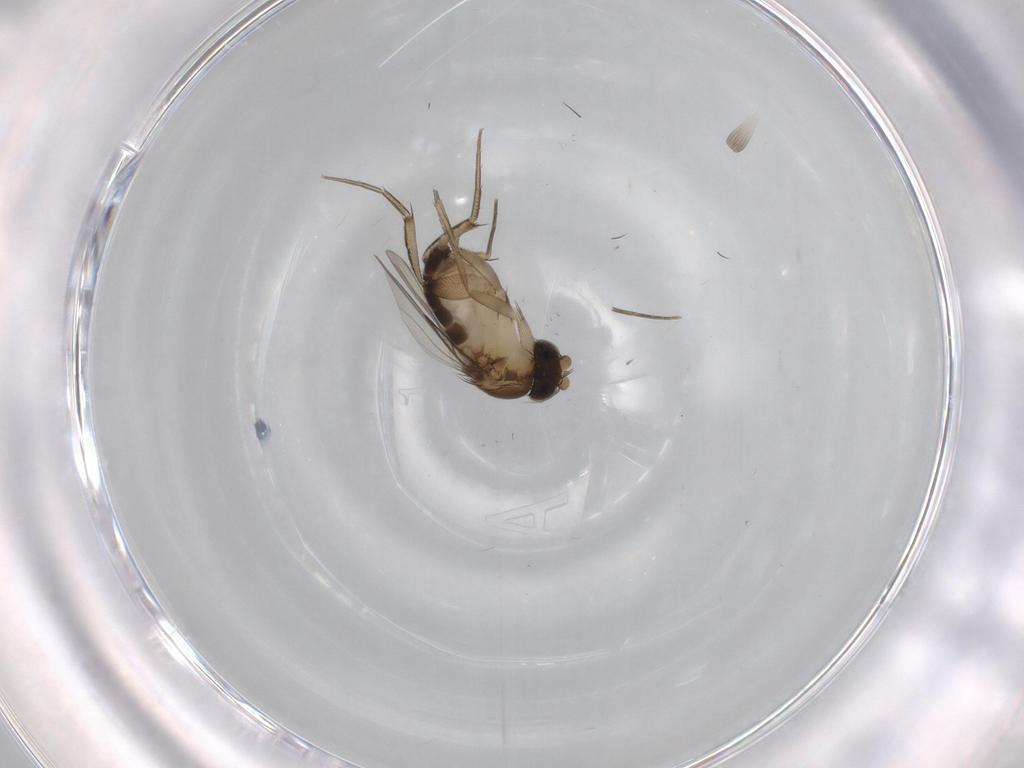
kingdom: Animalia
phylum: Arthropoda
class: Insecta
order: Diptera
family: Phoridae
